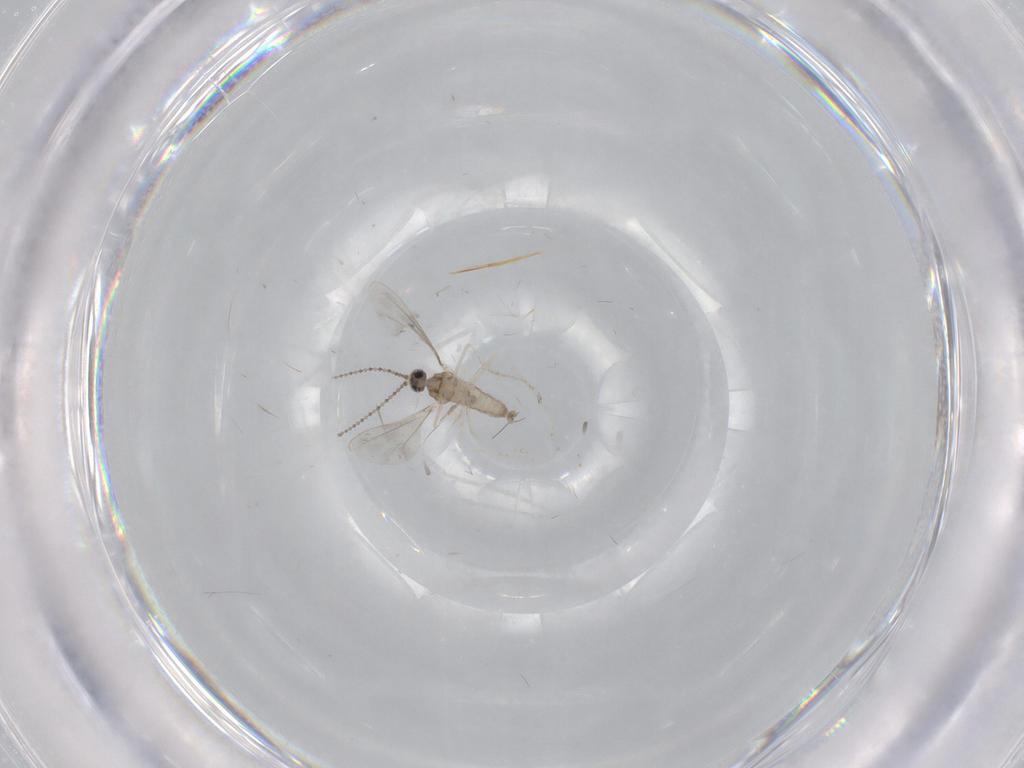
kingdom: Animalia
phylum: Arthropoda
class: Insecta
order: Diptera
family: Cecidomyiidae
